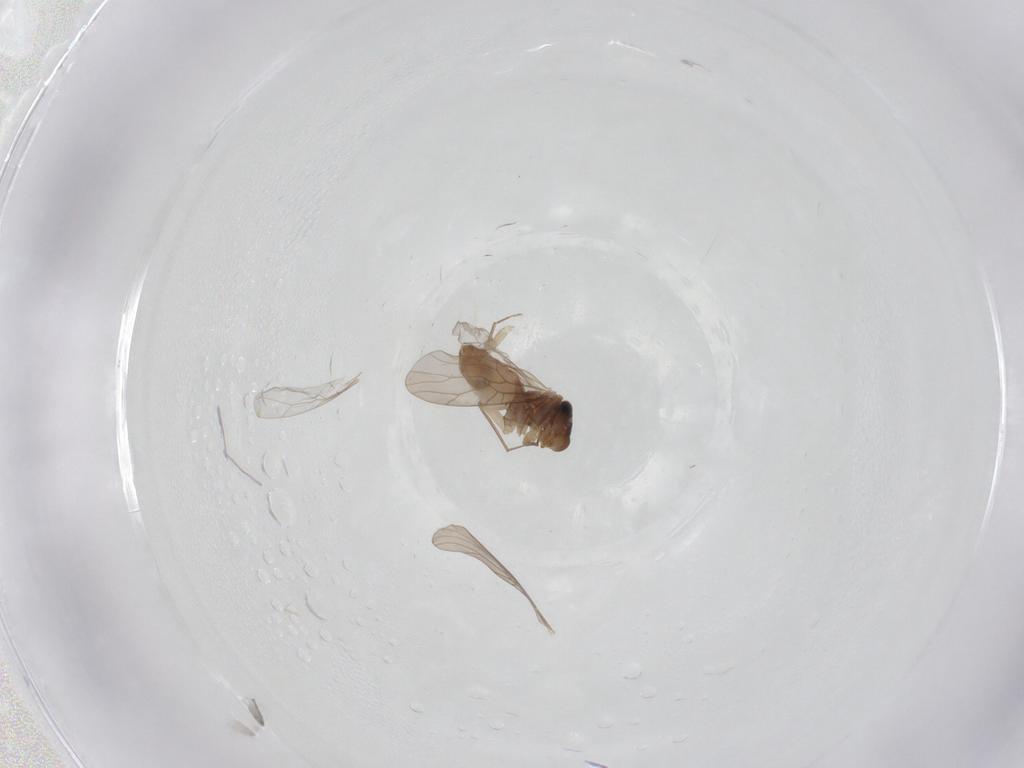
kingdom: Animalia
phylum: Arthropoda
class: Insecta
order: Psocodea
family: Lepidopsocidae
